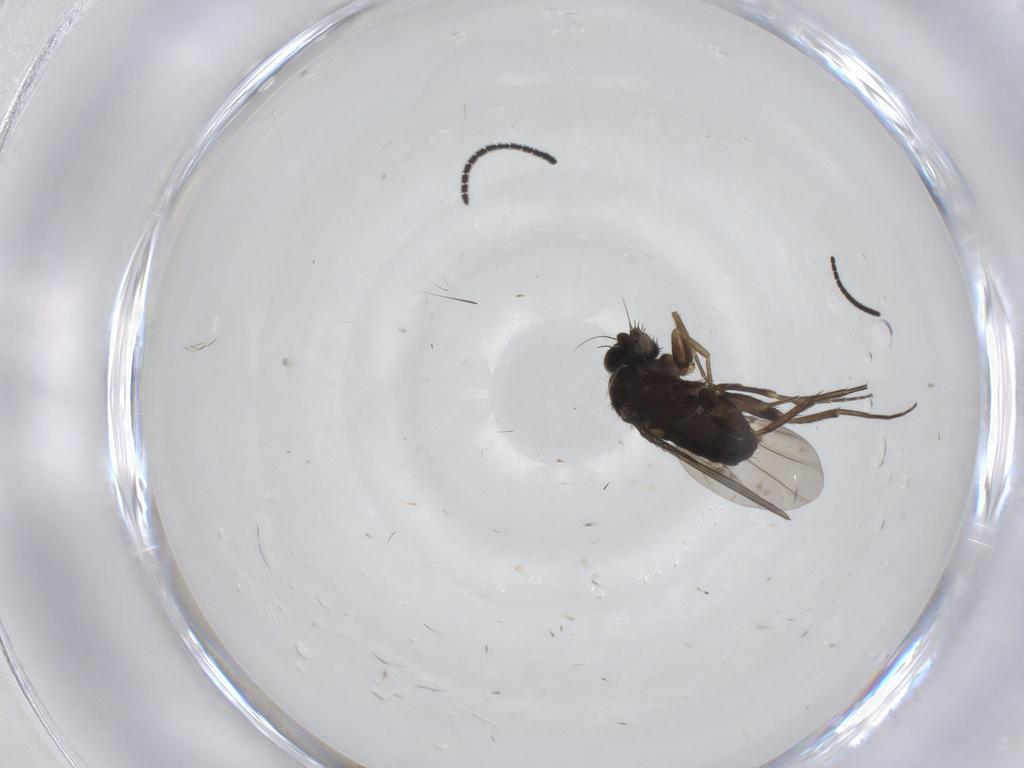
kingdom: Animalia
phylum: Arthropoda
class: Insecta
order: Diptera
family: Phoridae
